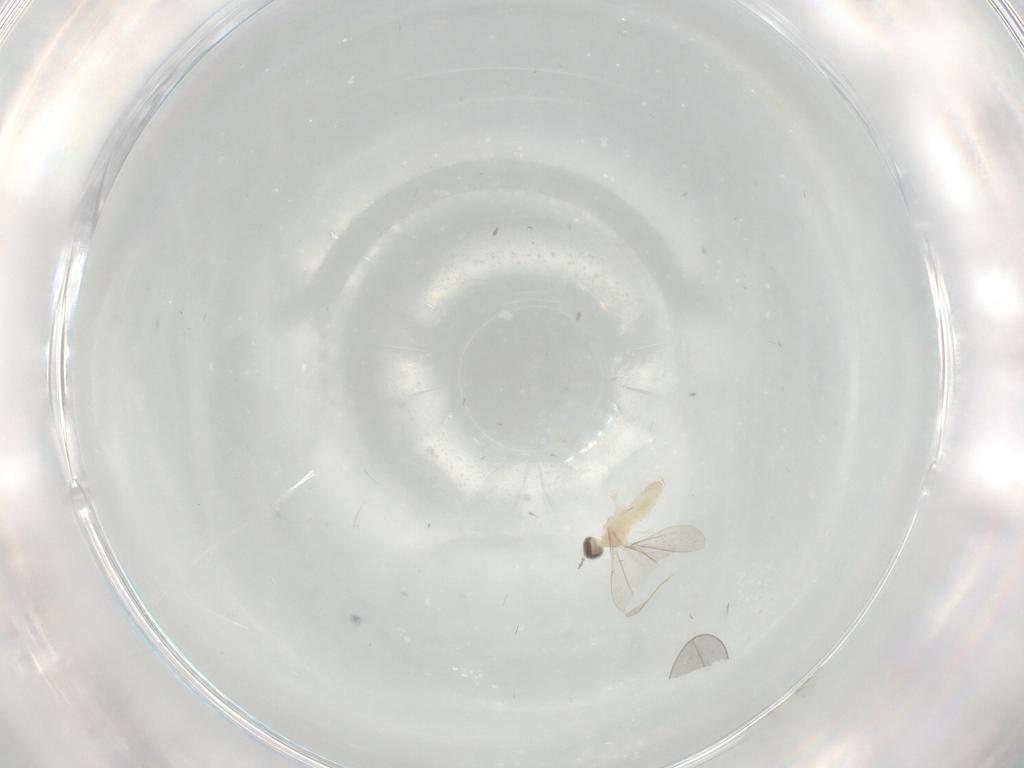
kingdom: Animalia
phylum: Arthropoda
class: Insecta
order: Diptera
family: Cecidomyiidae
